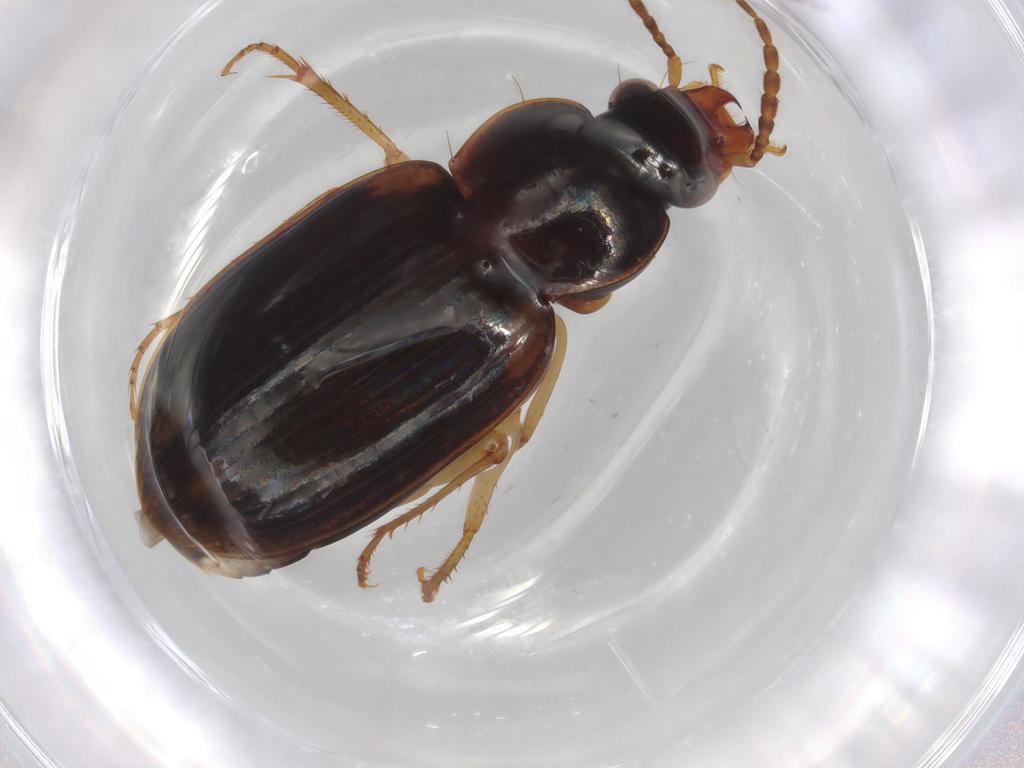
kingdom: Animalia
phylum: Arthropoda
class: Insecta
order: Coleoptera
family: Carabidae
